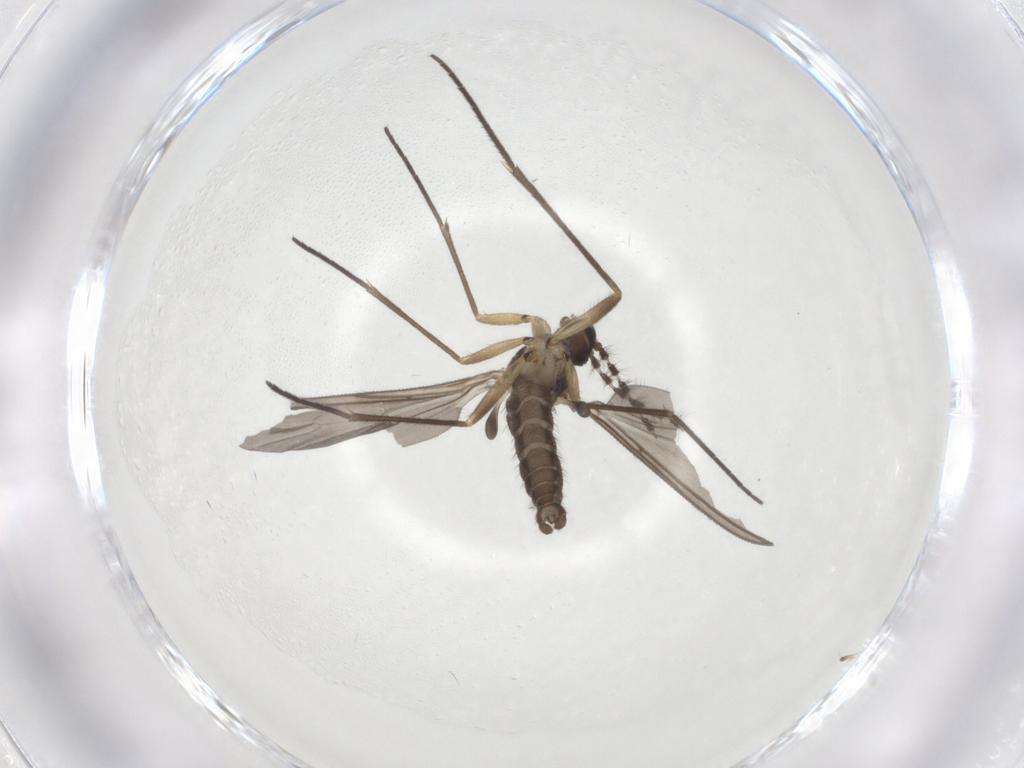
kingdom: Animalia
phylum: Arthropoda
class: Insecta
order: Diptera
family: Sciaridae
